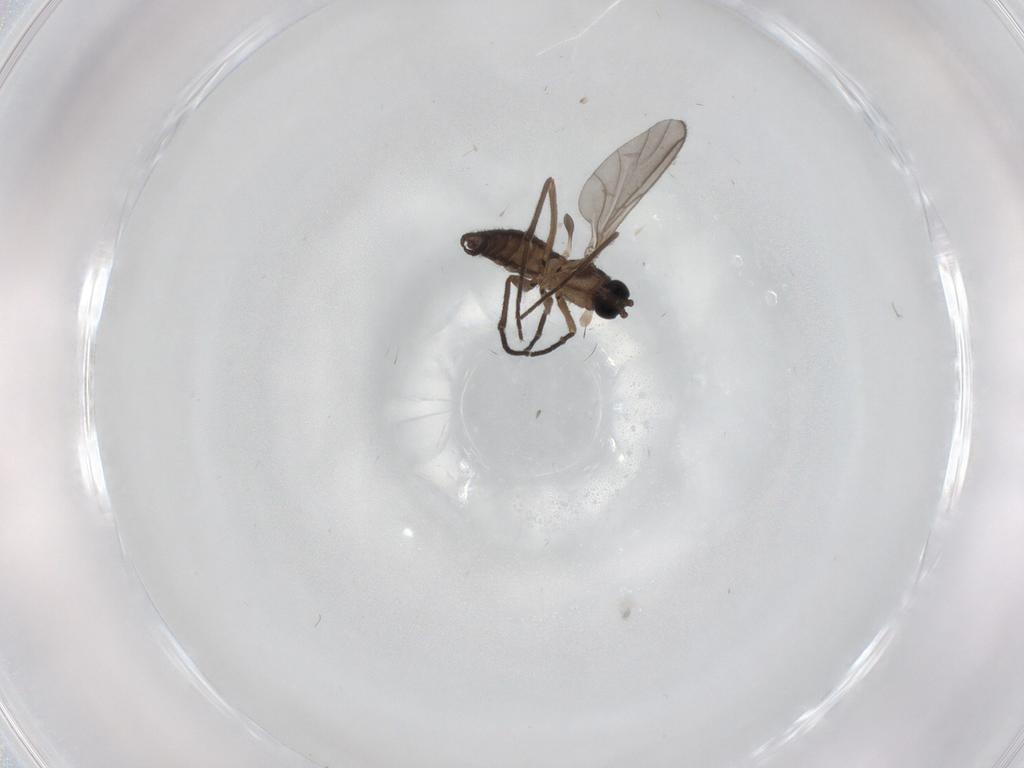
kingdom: Animalia
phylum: Arthropoda
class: Insecta
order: Diptera
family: Sciaridae
